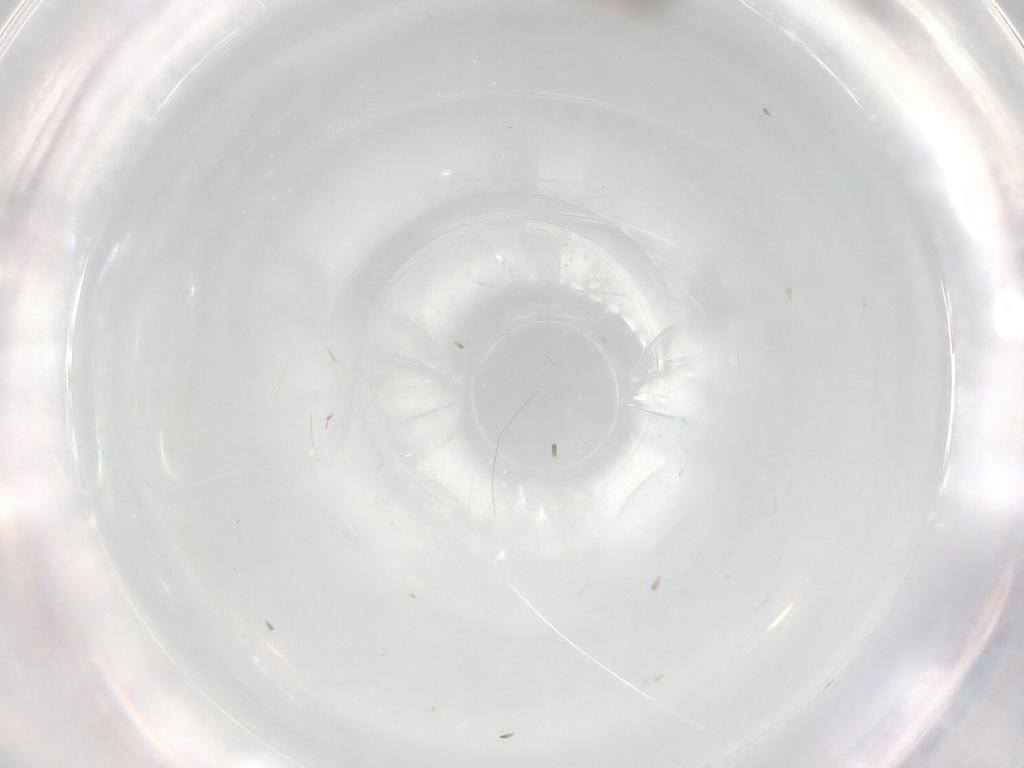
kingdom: Animalia
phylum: Arthropoda
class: Insecta
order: Diptera
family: Ceratopogonidae
